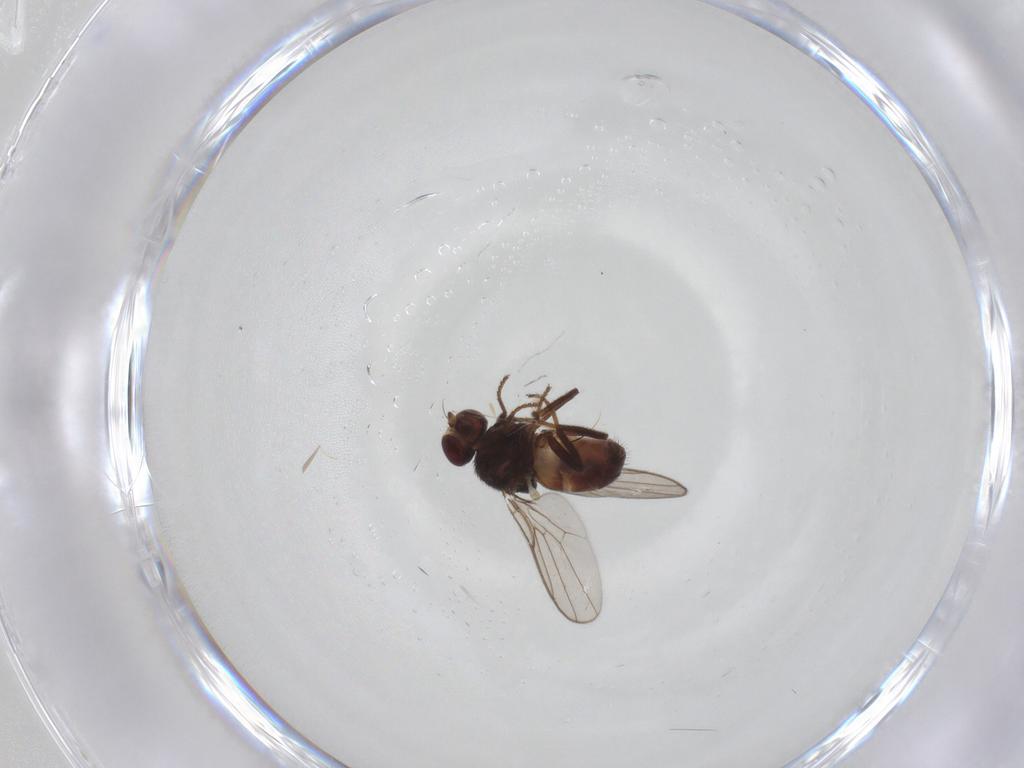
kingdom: Animalia
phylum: Arthropoda
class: Insecta
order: Diptera
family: Chloropidae
